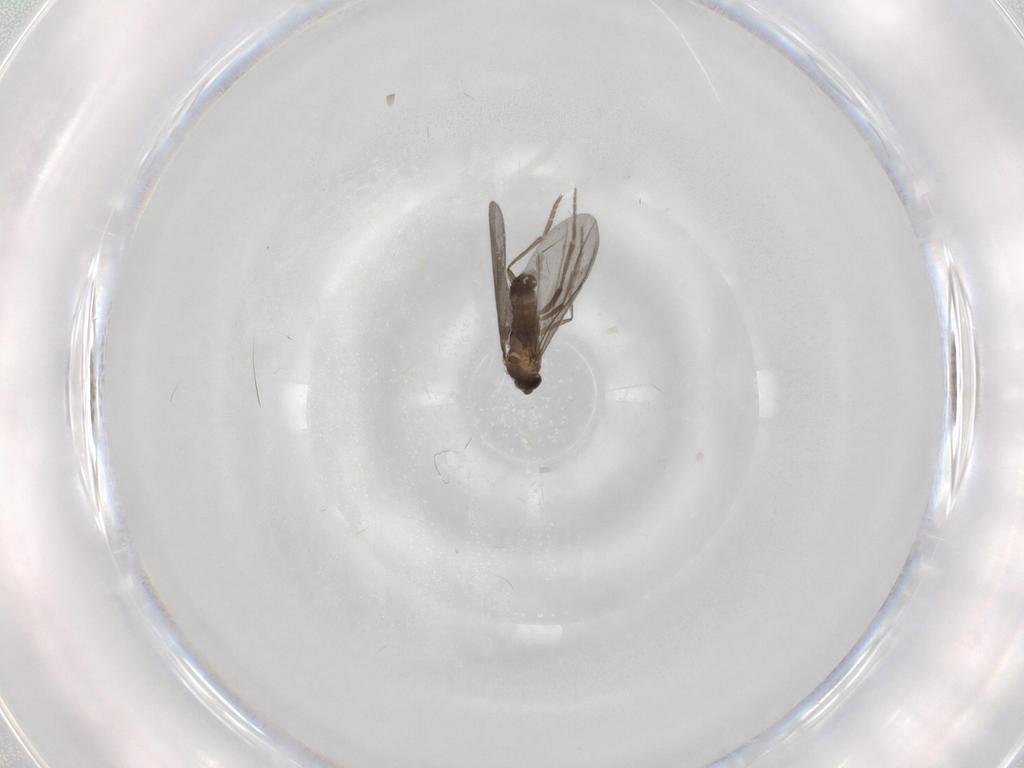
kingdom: Animalia
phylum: Arthropoda
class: Insecta
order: Diptera
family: Phoridae
